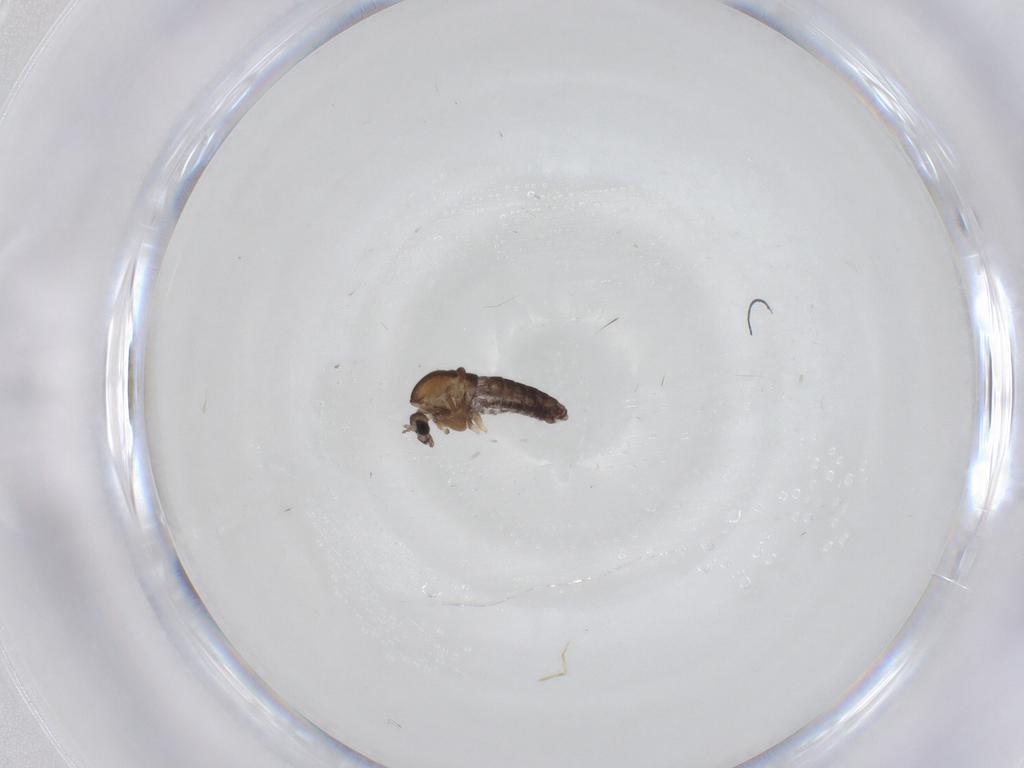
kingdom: Animalia
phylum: Arthropoda
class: Insecta
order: Diptera
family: Chironomidae
